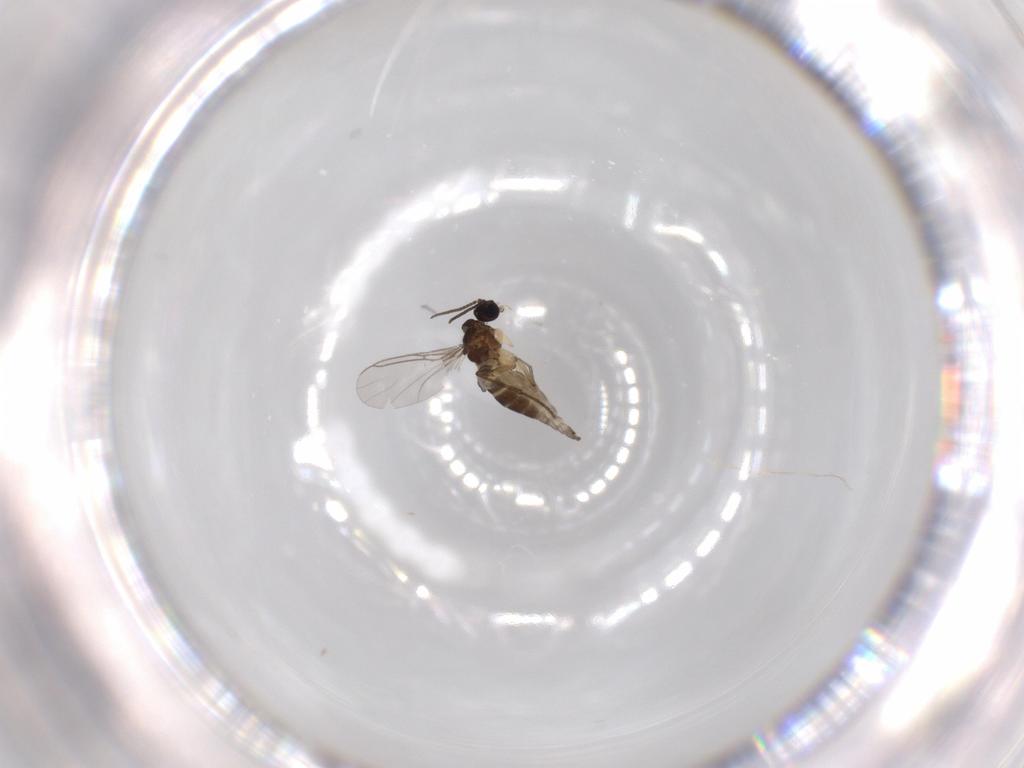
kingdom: Animalia
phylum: Arthropoda
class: Insecta
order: Diptera
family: Sciaridae
